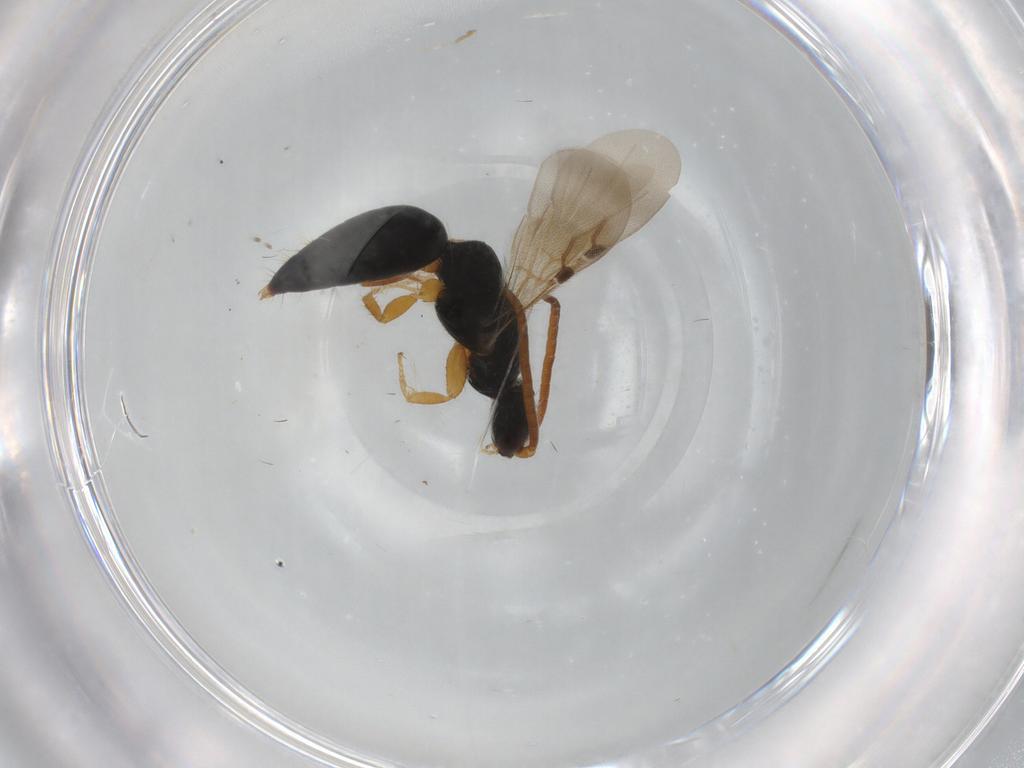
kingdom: Animalia
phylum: Arthropoda
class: Insecta
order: Hymenoptera
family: Bethylidae
